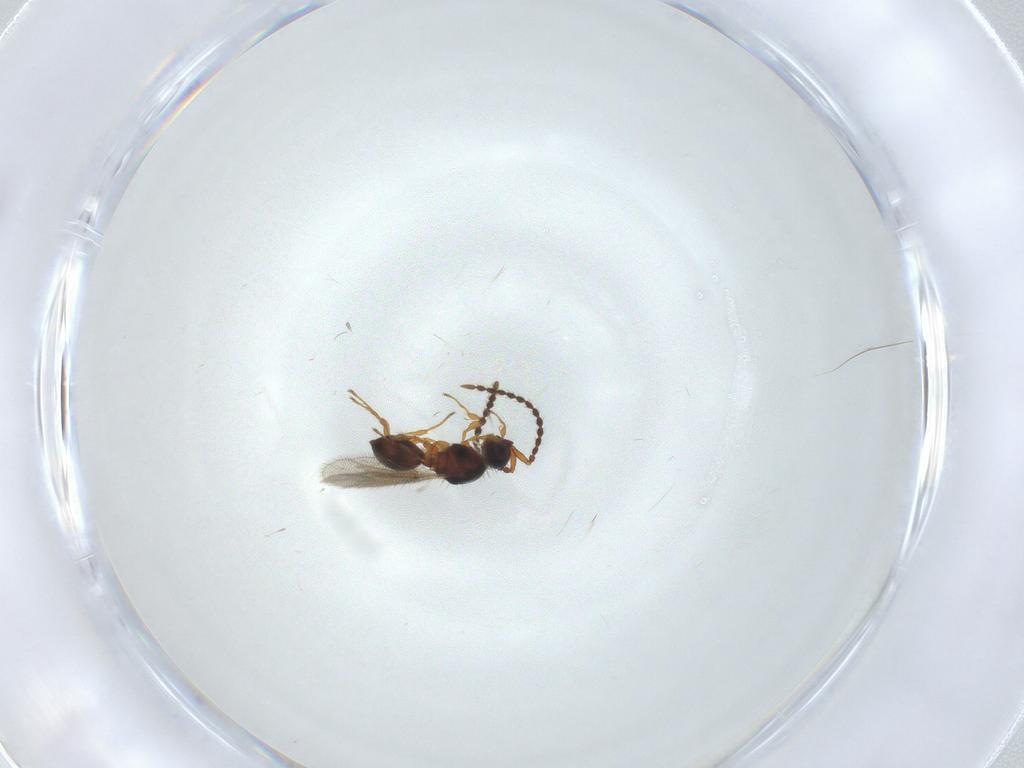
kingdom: Animalia
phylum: Arthropoda
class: Insecta
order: Hymenoptera
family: Diapriidae
